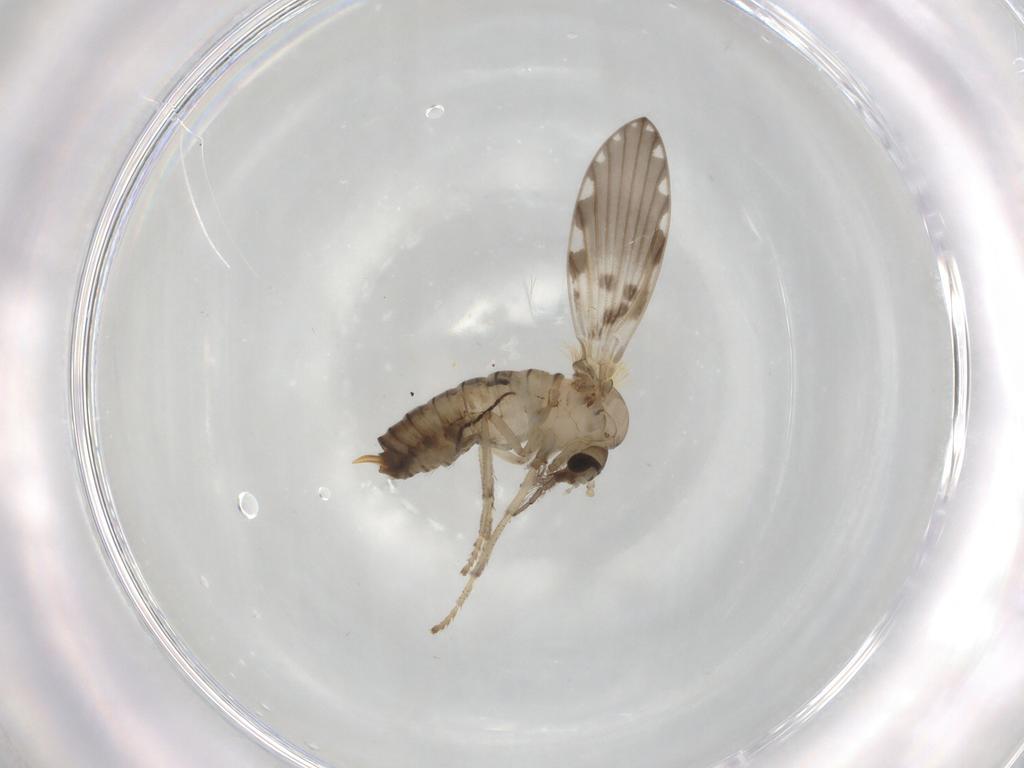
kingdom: Animalia
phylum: Arthropoda
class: Insecta
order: Diptera
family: Psychodidae
